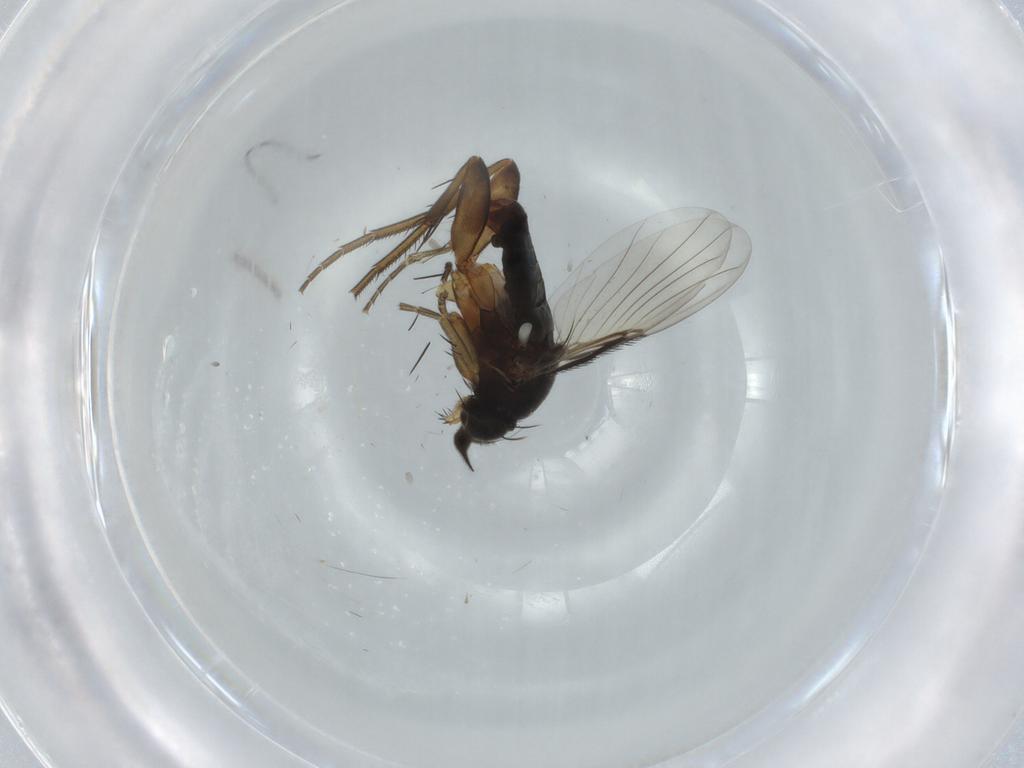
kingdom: Animalia
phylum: Arthropoda
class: Insecta
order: Diptera
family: Phoridae
